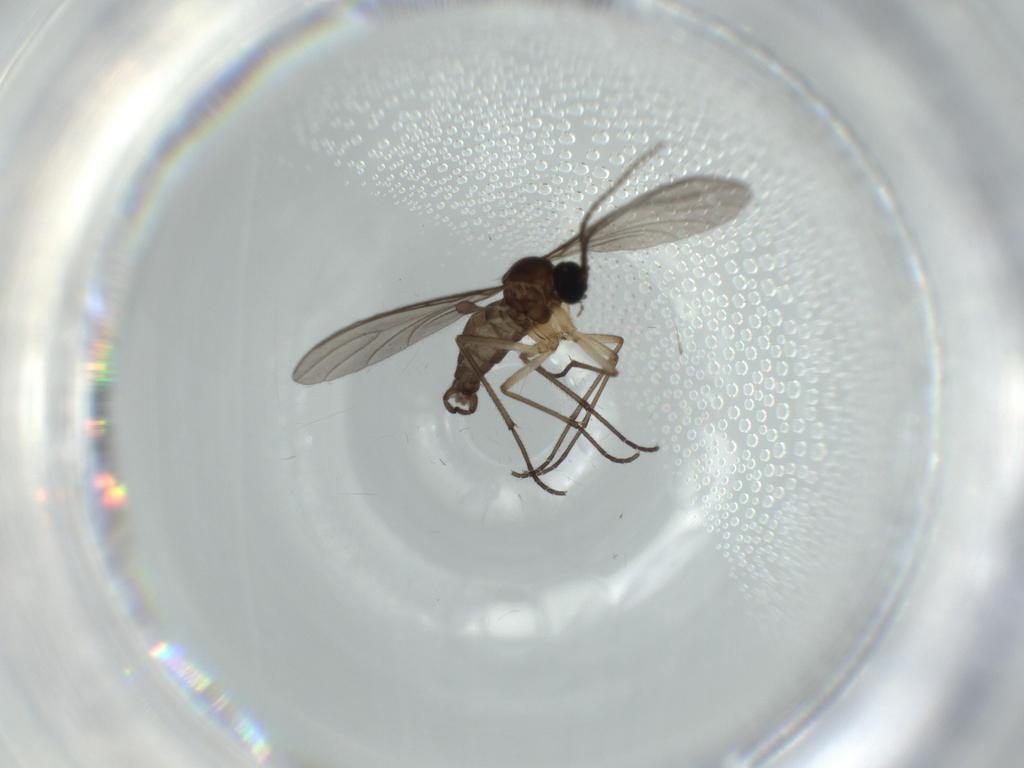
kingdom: Animalia
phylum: Arthropoda
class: Insecta
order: Diptera
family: Sciaridae
